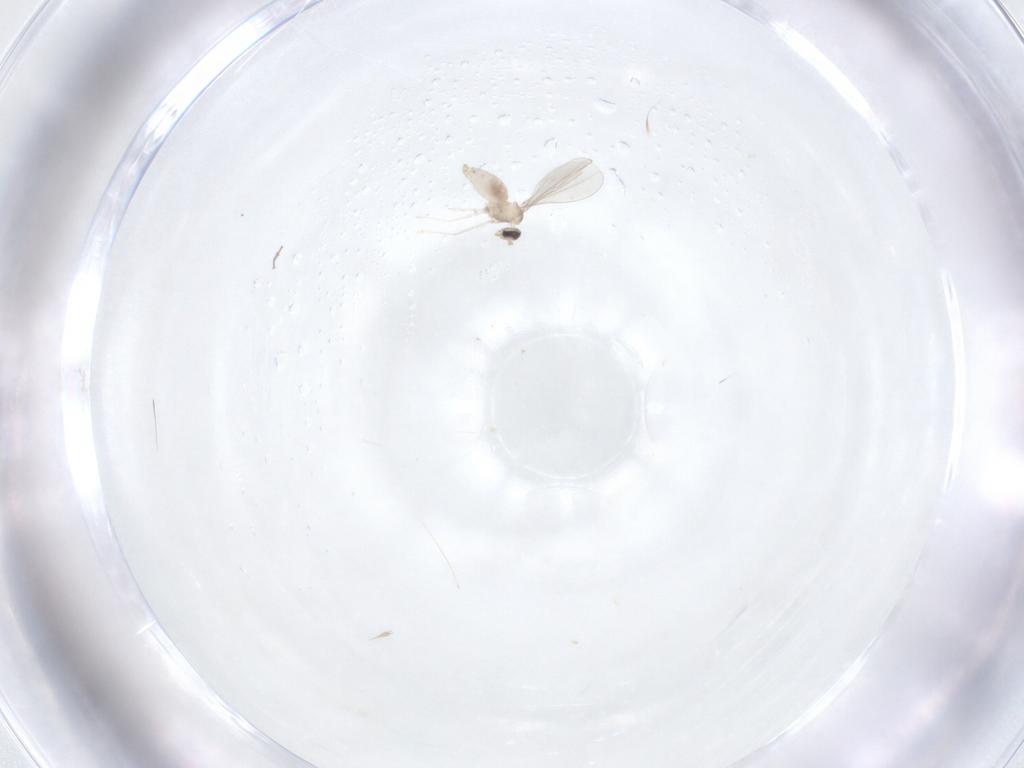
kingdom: Animalia
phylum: Arthropoda
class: Insecta
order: Diptera
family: Cecidomyiidae
